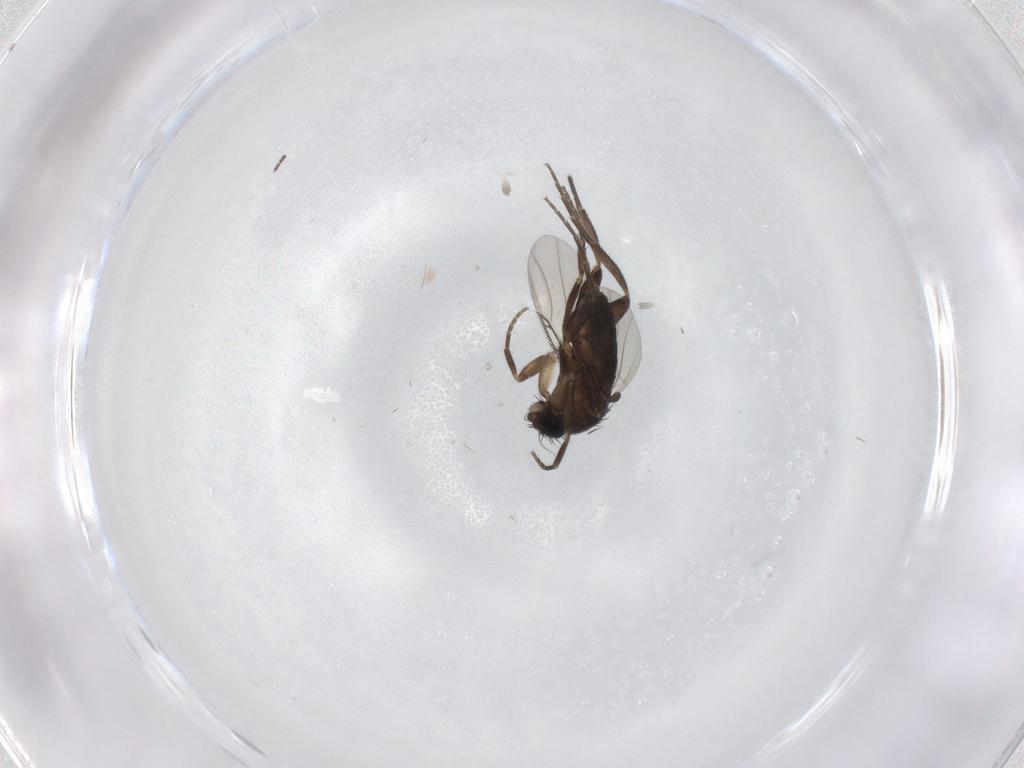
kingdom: Animalia
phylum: Arthropoda
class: Insecta
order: Diptera
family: Phoridae
